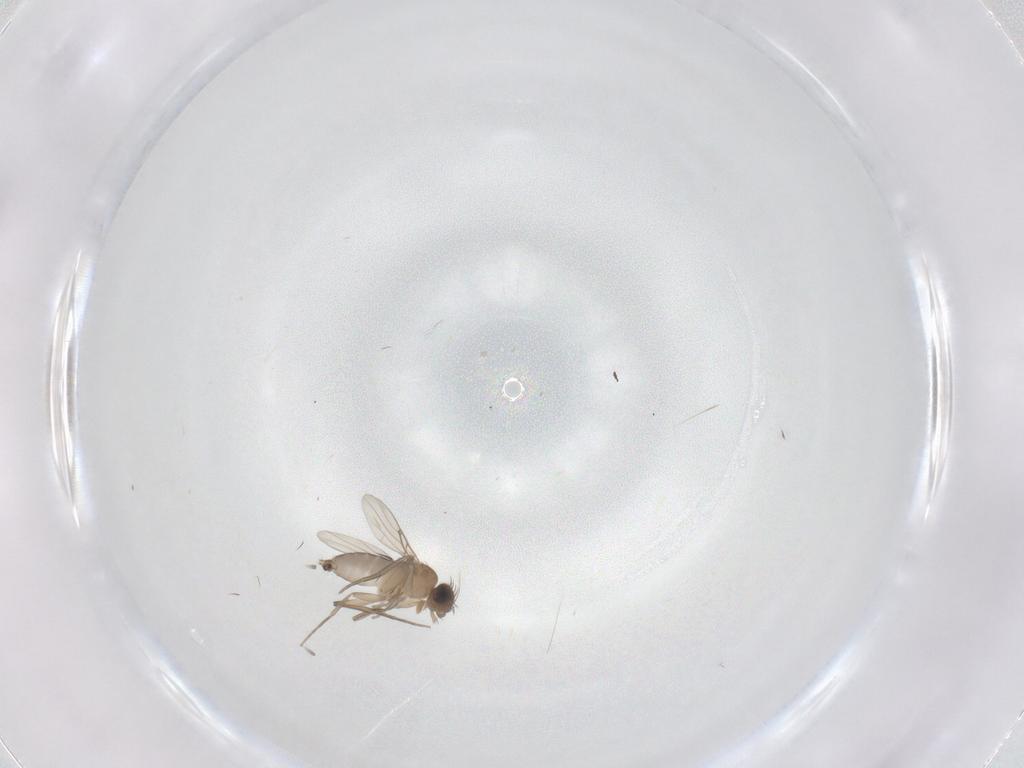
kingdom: Animalia
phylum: Arthropoda
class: Insecta
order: Diptera
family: Phoridae
